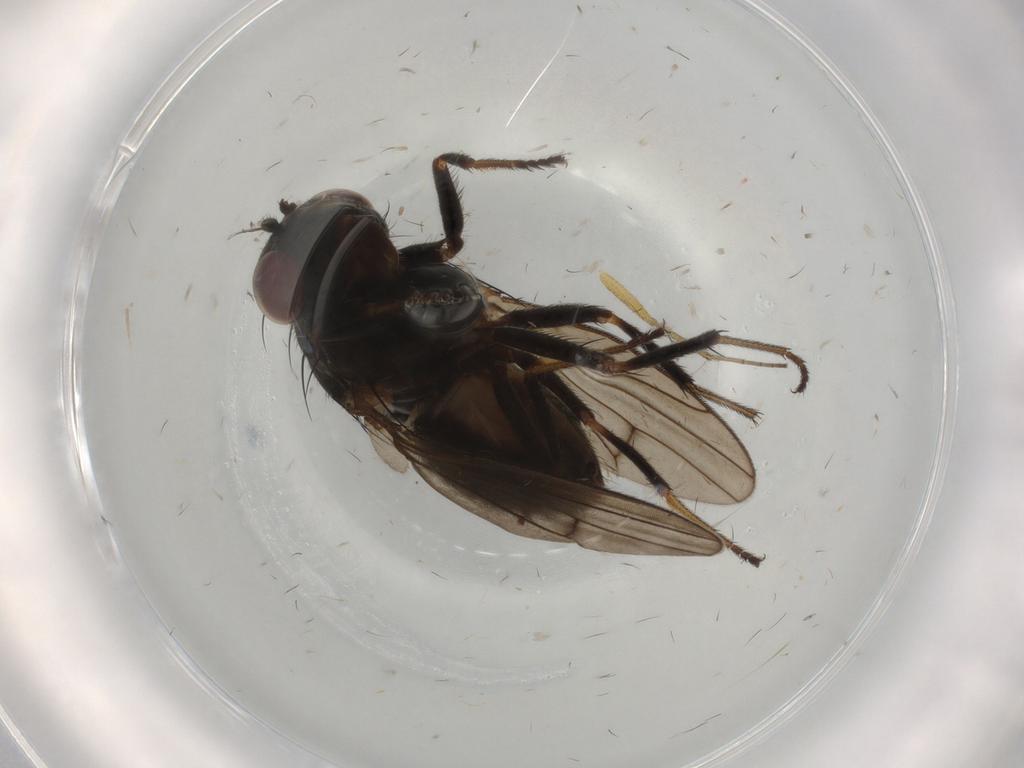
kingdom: Animalia
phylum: Arthropoda
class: Insecta
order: Diptera
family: Ephydridae
